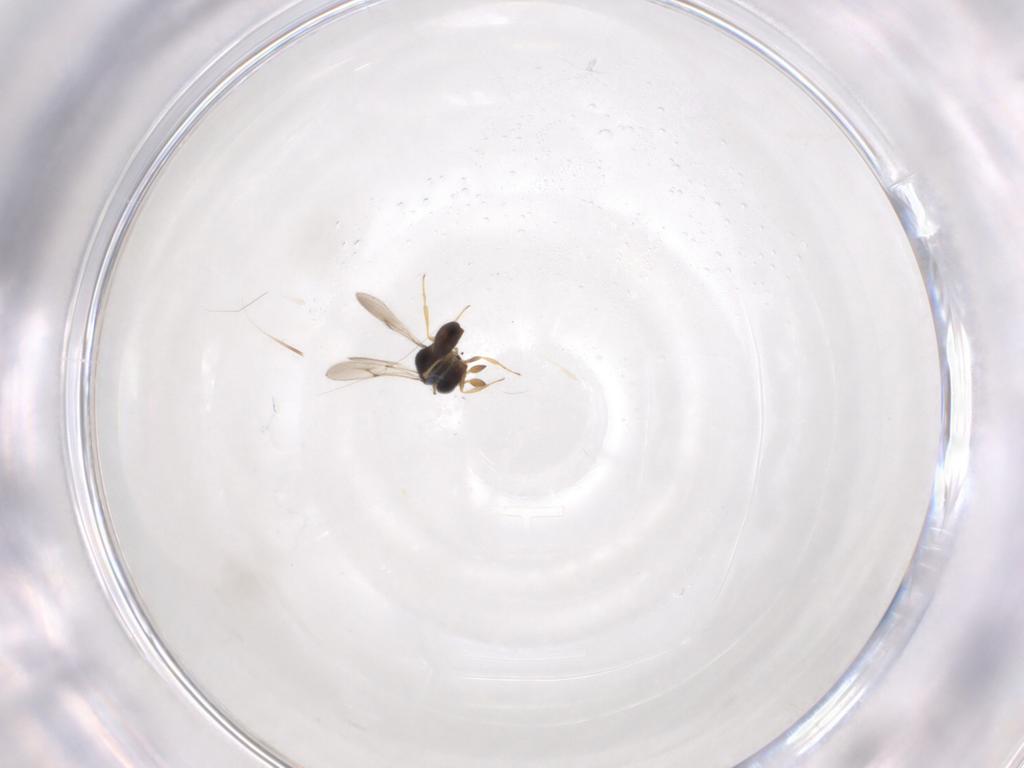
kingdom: Animalia
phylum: Arthropoda
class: Insecta
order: Hymenoptera
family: Scelionidae
